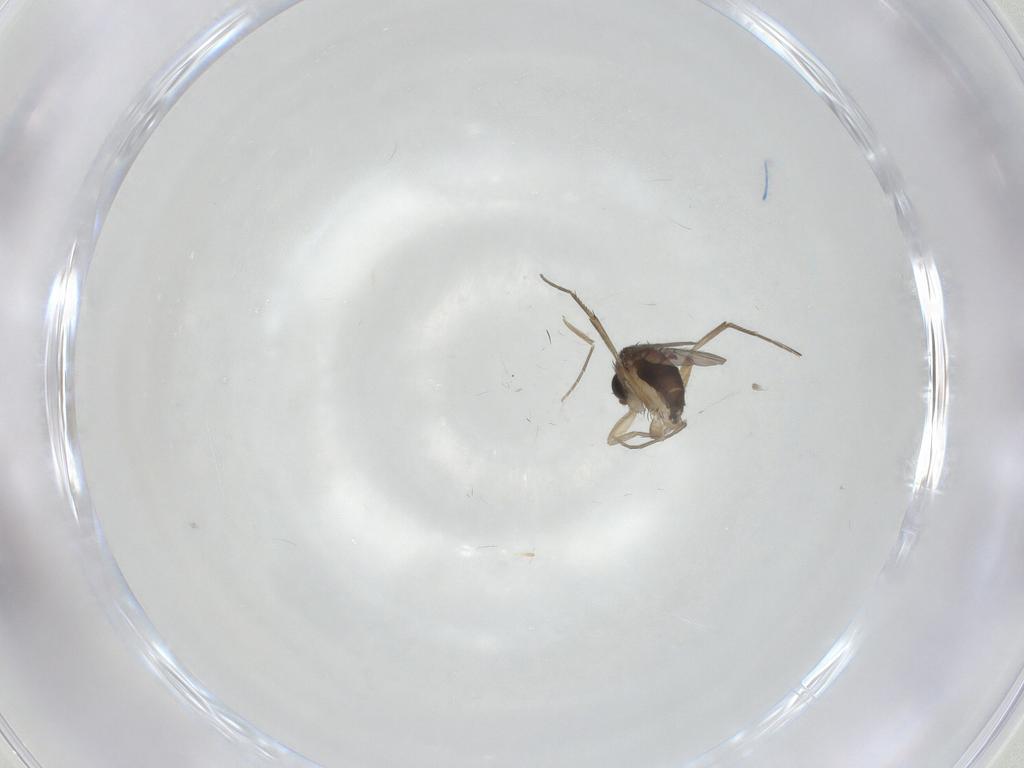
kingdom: Animalia
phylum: Arthropoda
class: Insecta
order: Diptera
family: Phoridae
